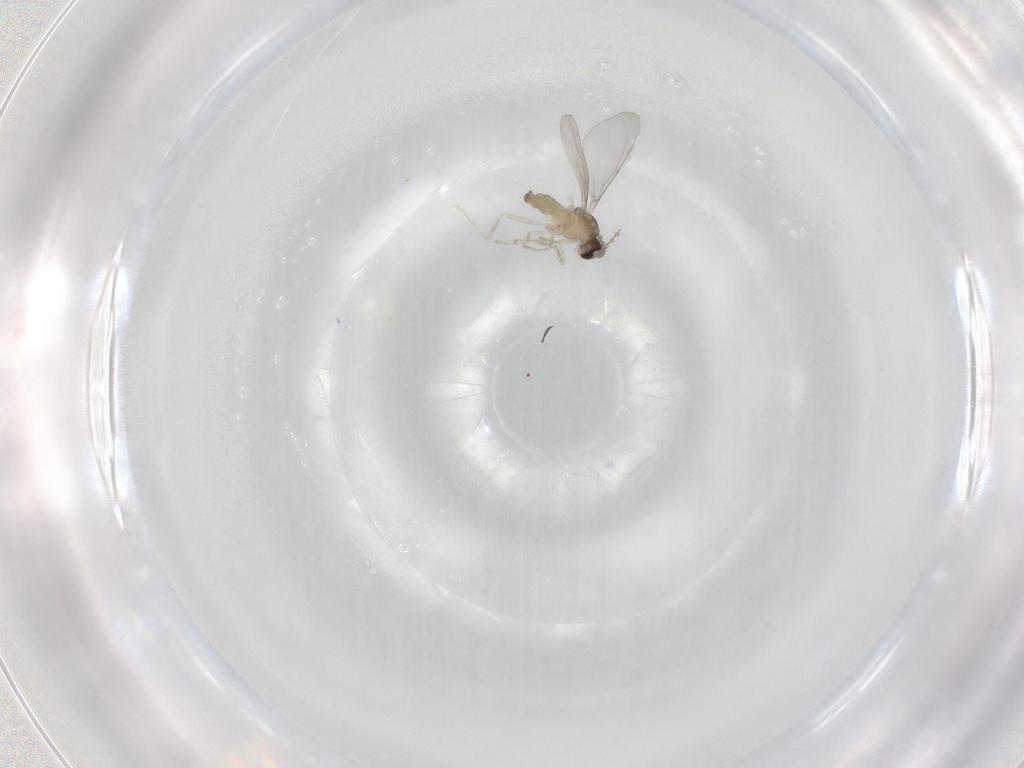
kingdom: Animalia
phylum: Arthropoda
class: Insecta
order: Diptera
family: Cecidomyiidae
